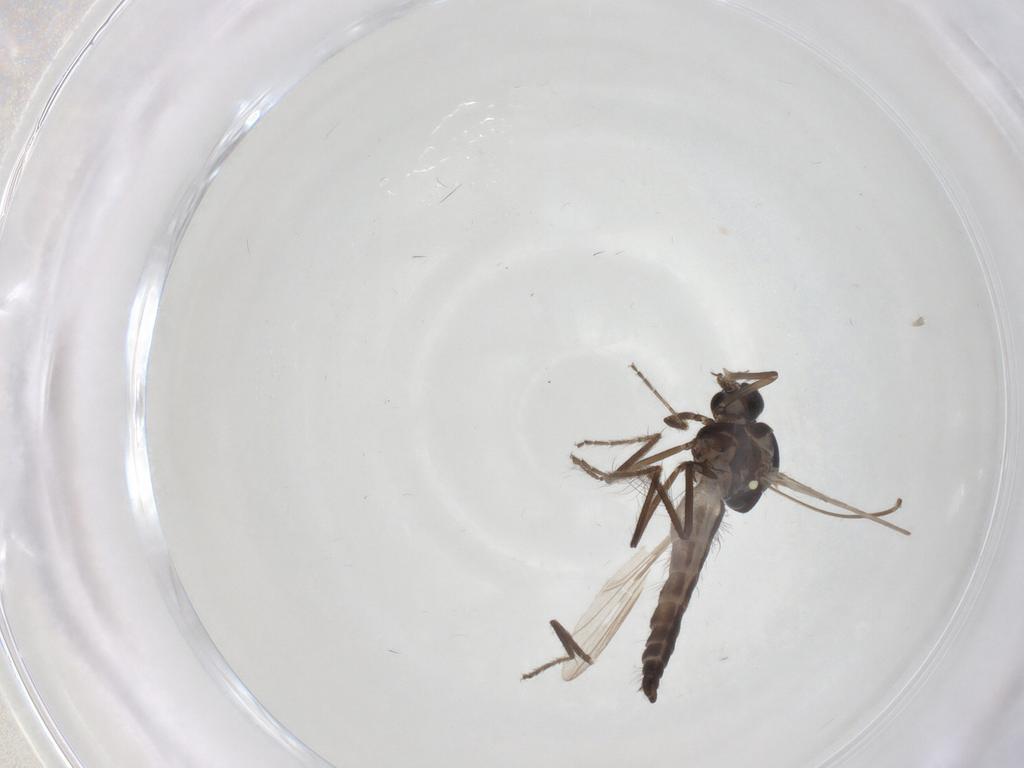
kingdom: Animalia
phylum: Arthropoda
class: Insecta
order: Diptera
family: Ceratopogonidae
